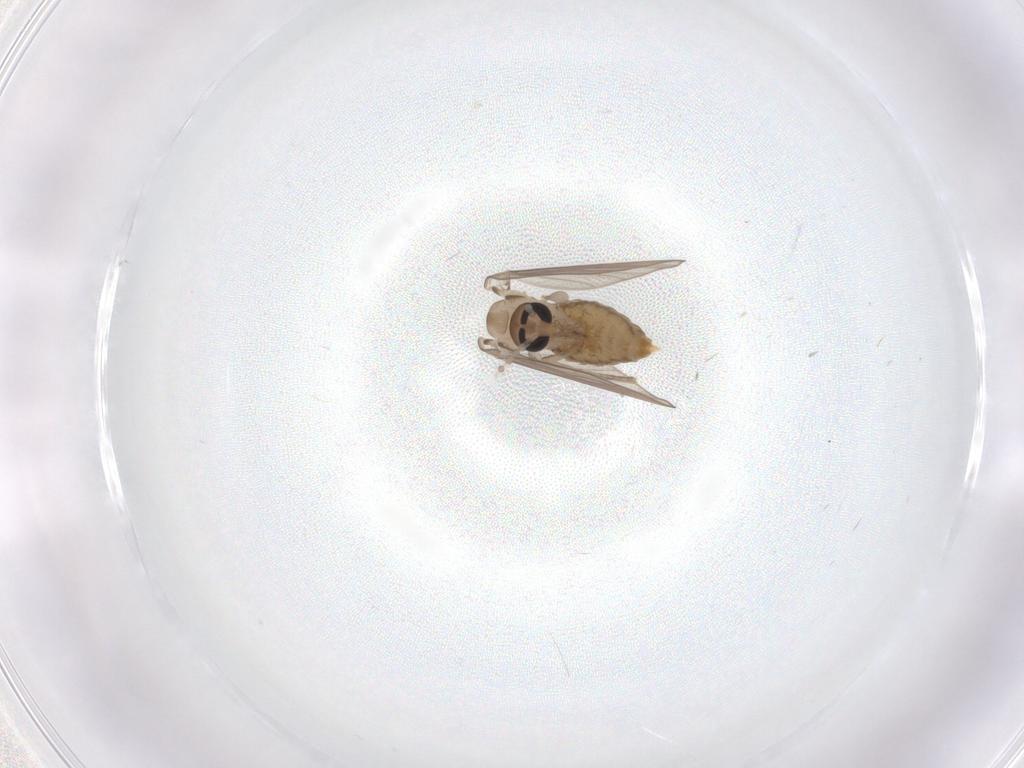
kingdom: Animalia
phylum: Arthropoda
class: Insecta
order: Diptera
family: Psychodidae
